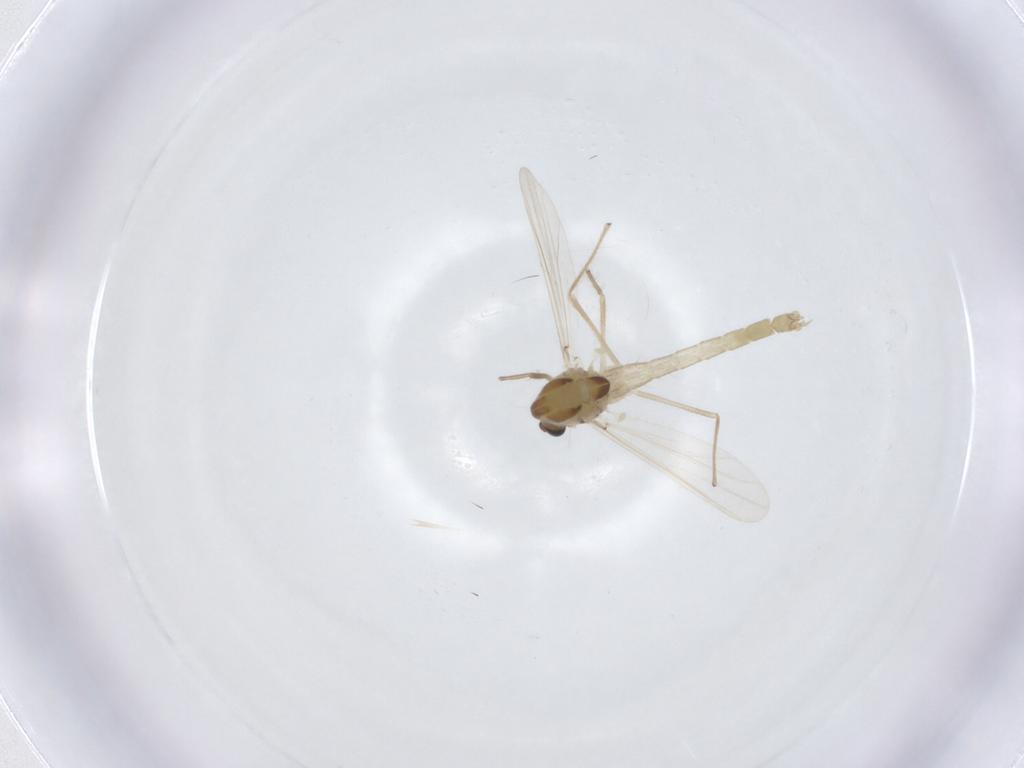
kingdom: Animalia
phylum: Arthropoda
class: Insecta
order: Diptera
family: Chironomidae
